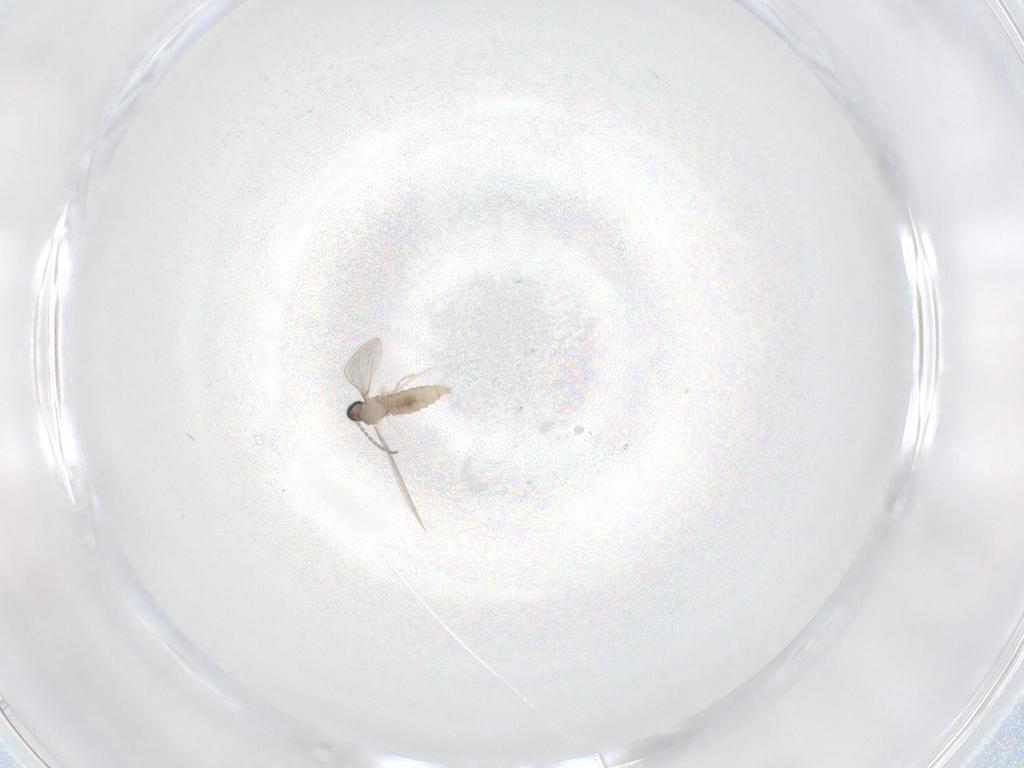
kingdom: Animalia
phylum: Arthropoda
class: Insecta
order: Diptera
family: Cecidomyiidae
